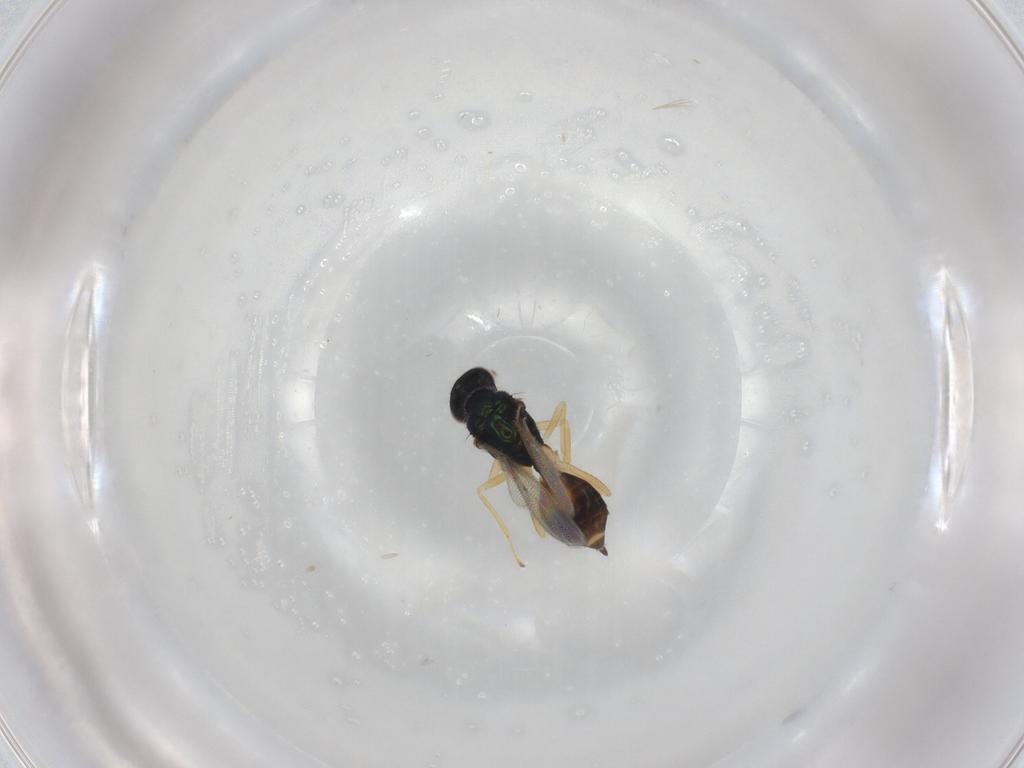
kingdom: Animalia
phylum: Arthropoda
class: Insecta
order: Hymenoptera
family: Eulophidae
